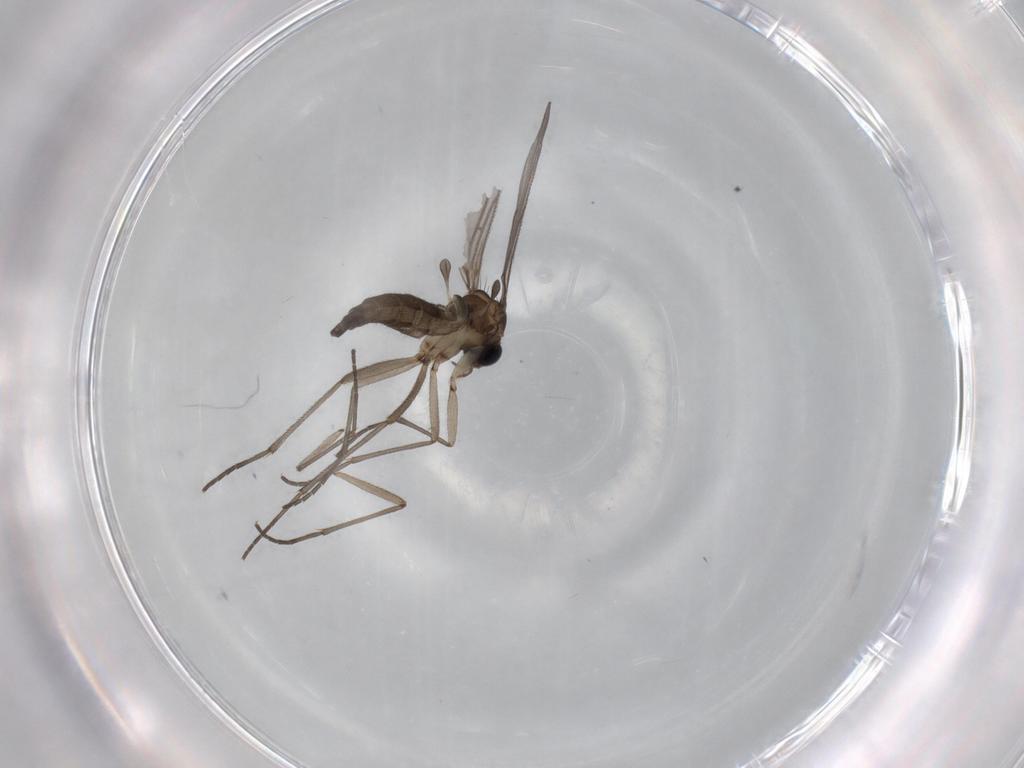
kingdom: Animalia
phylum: Arthropoda
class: Insecta
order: Diptera
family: Sciaridae
